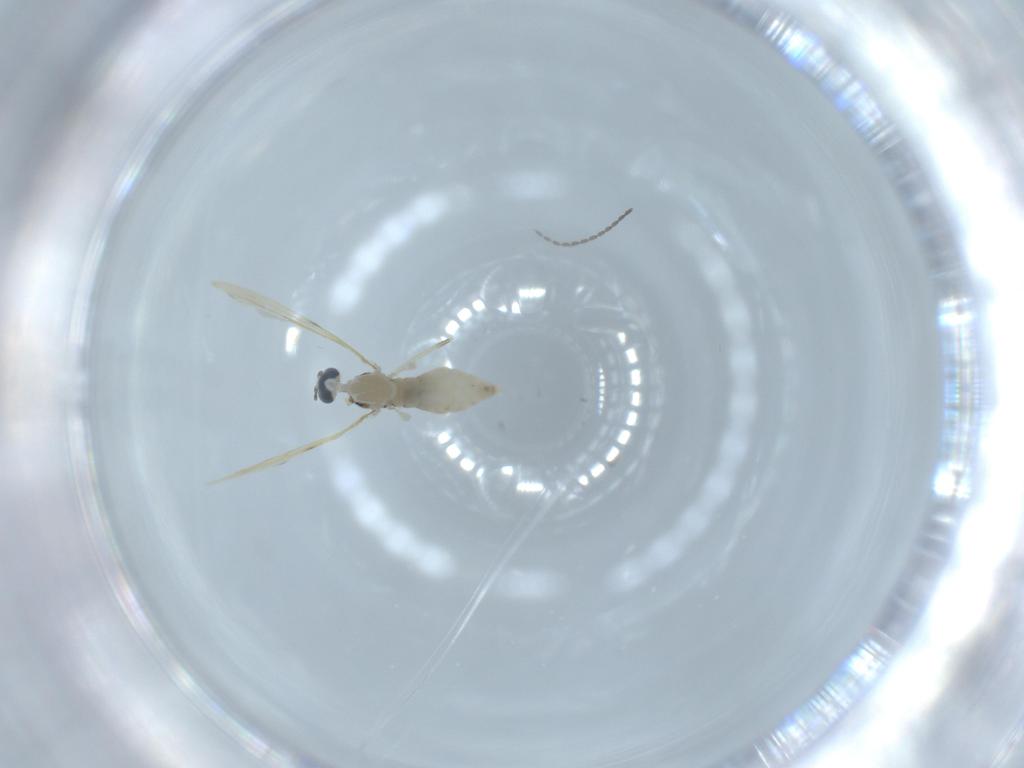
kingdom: Animalia
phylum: Arthropoda
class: Insecta
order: Diptera
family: Cecidomyiidae
